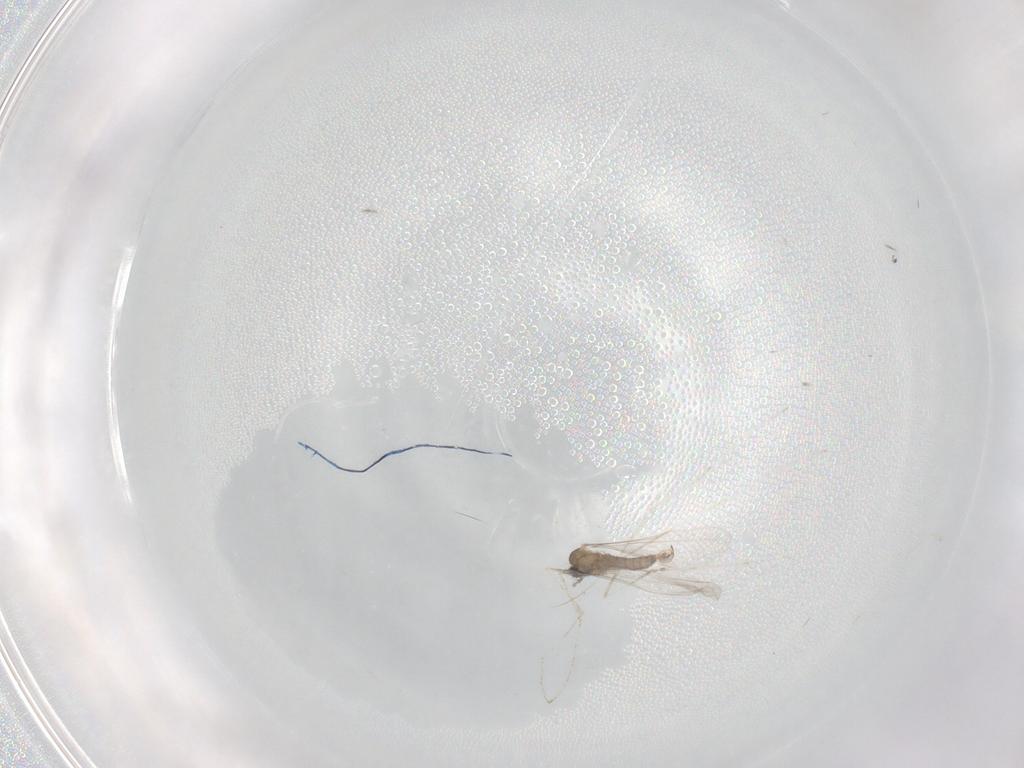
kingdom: Animalia
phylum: Arthropoda
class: Insecta
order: Diptera
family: Cecidomyiidae
